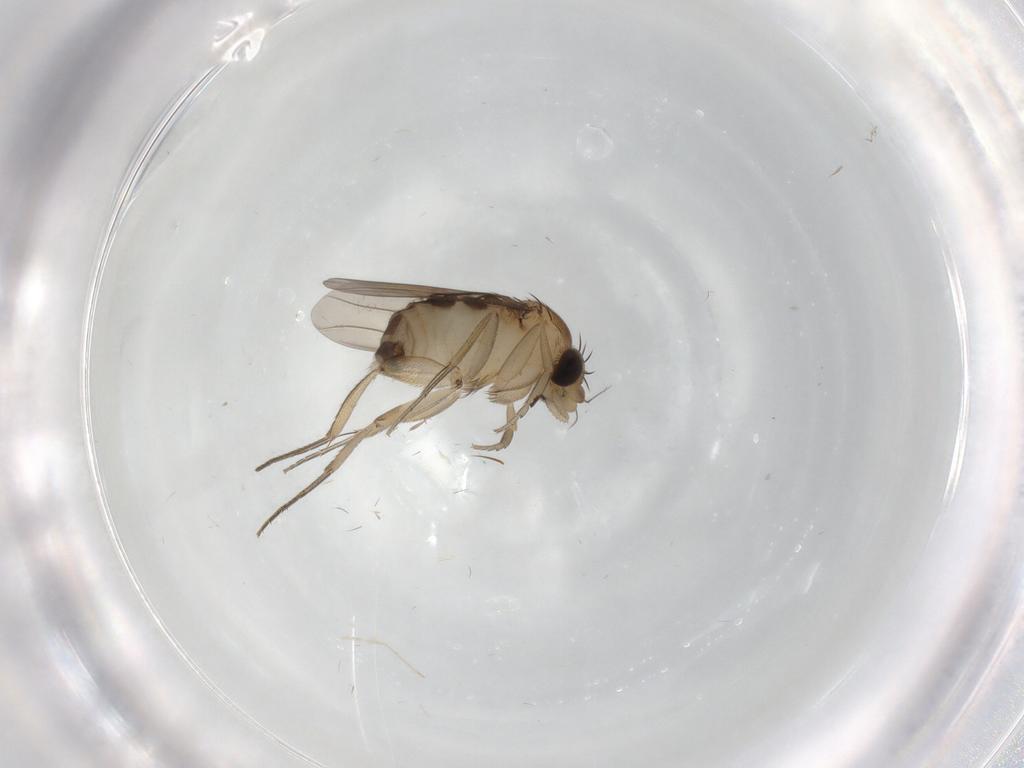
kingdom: Animalia
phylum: Arthropoda
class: Insecta
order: Diptera
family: Phoridae
